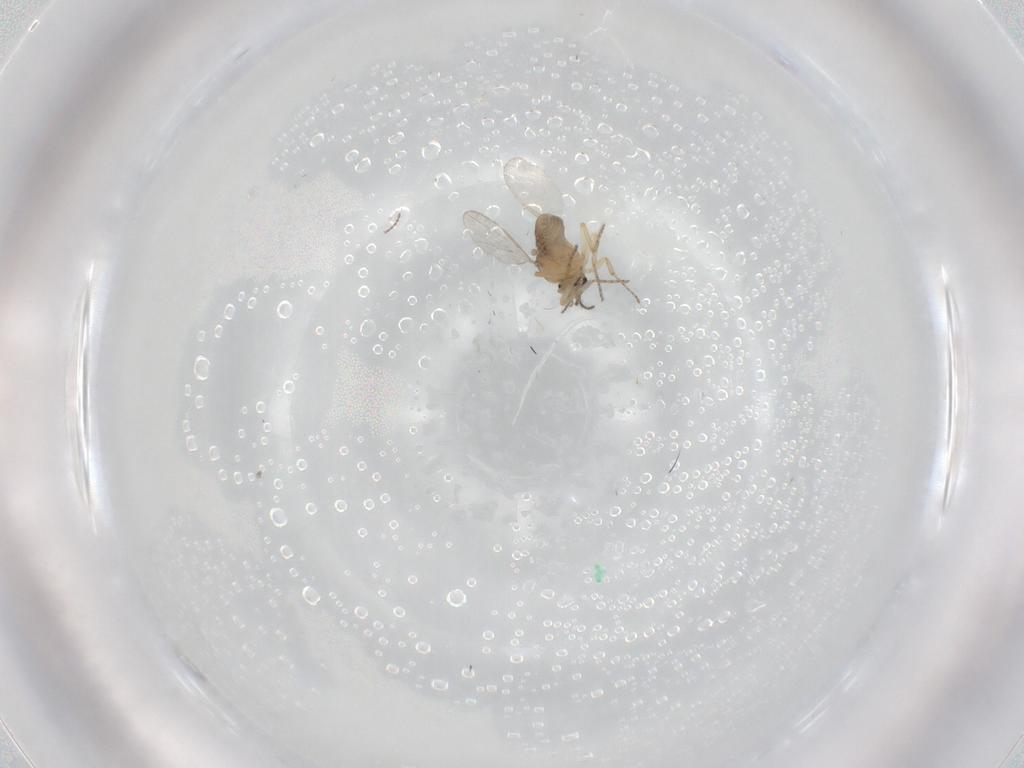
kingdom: Animalia
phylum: Arthropoda
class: Insecta
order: Diptera
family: Ceratopogonidae
